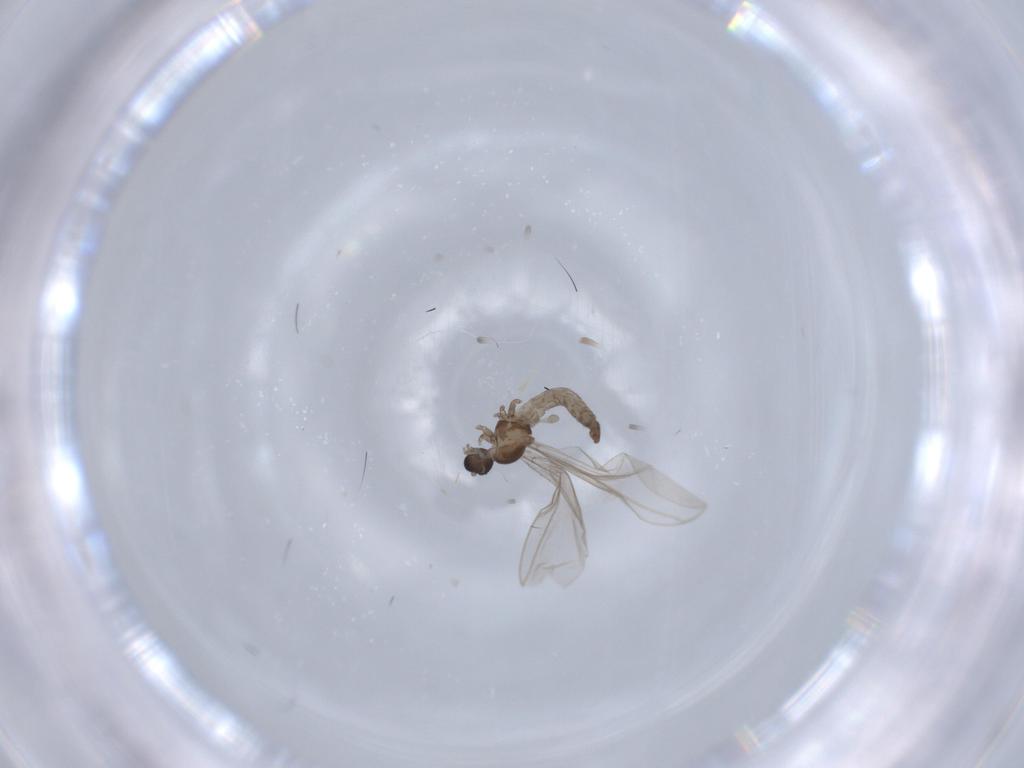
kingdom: Animalia
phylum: Arthropoda
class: Insecta
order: Diptera
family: Cecidomyiidae
